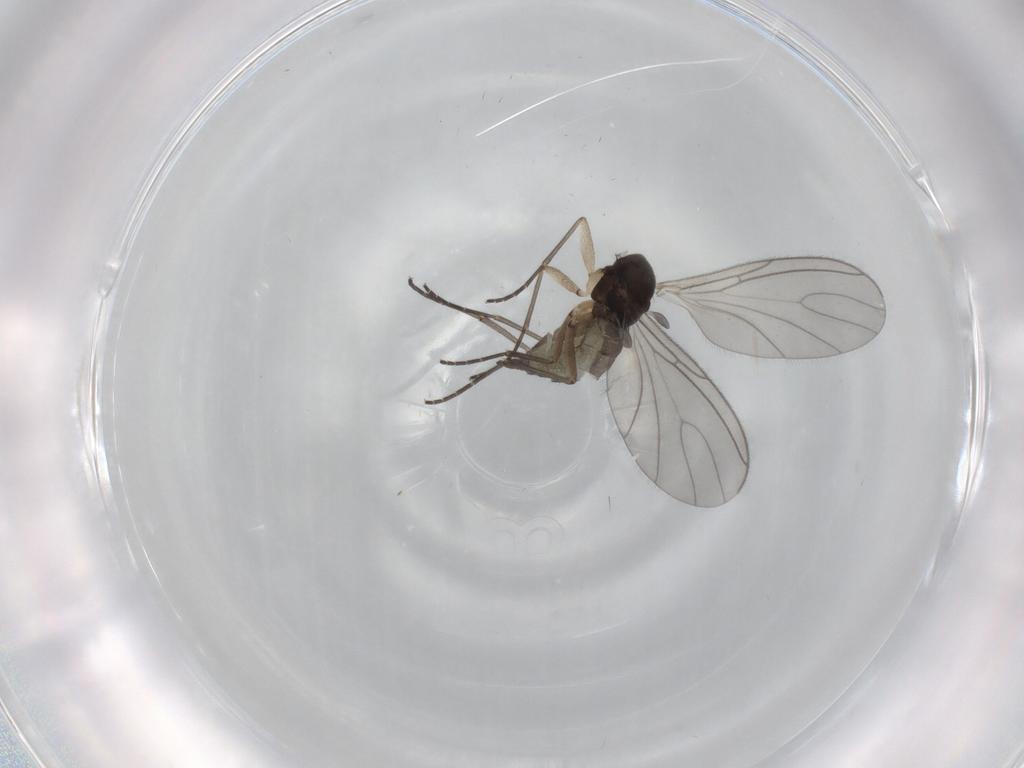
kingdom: Animalia
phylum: Arthropoda
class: Insecta
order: Diptera
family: Sciaridae
